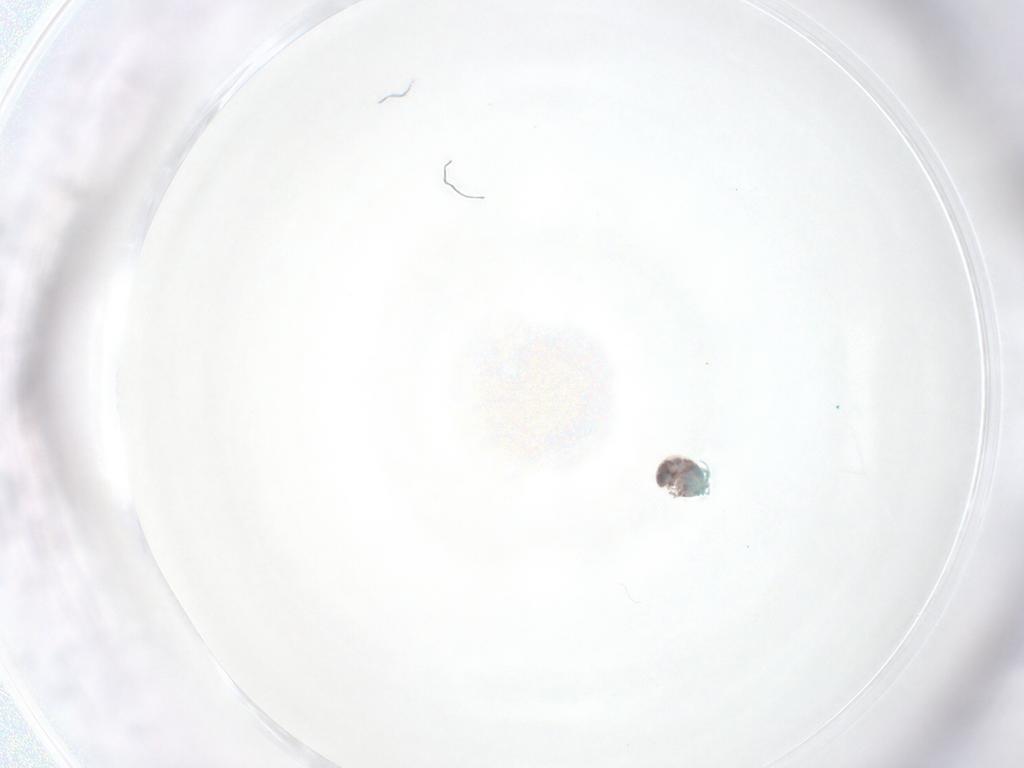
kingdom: Animalia
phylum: Arthropoda
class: Arachnida
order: Trombidiformes
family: Arrenuridae
